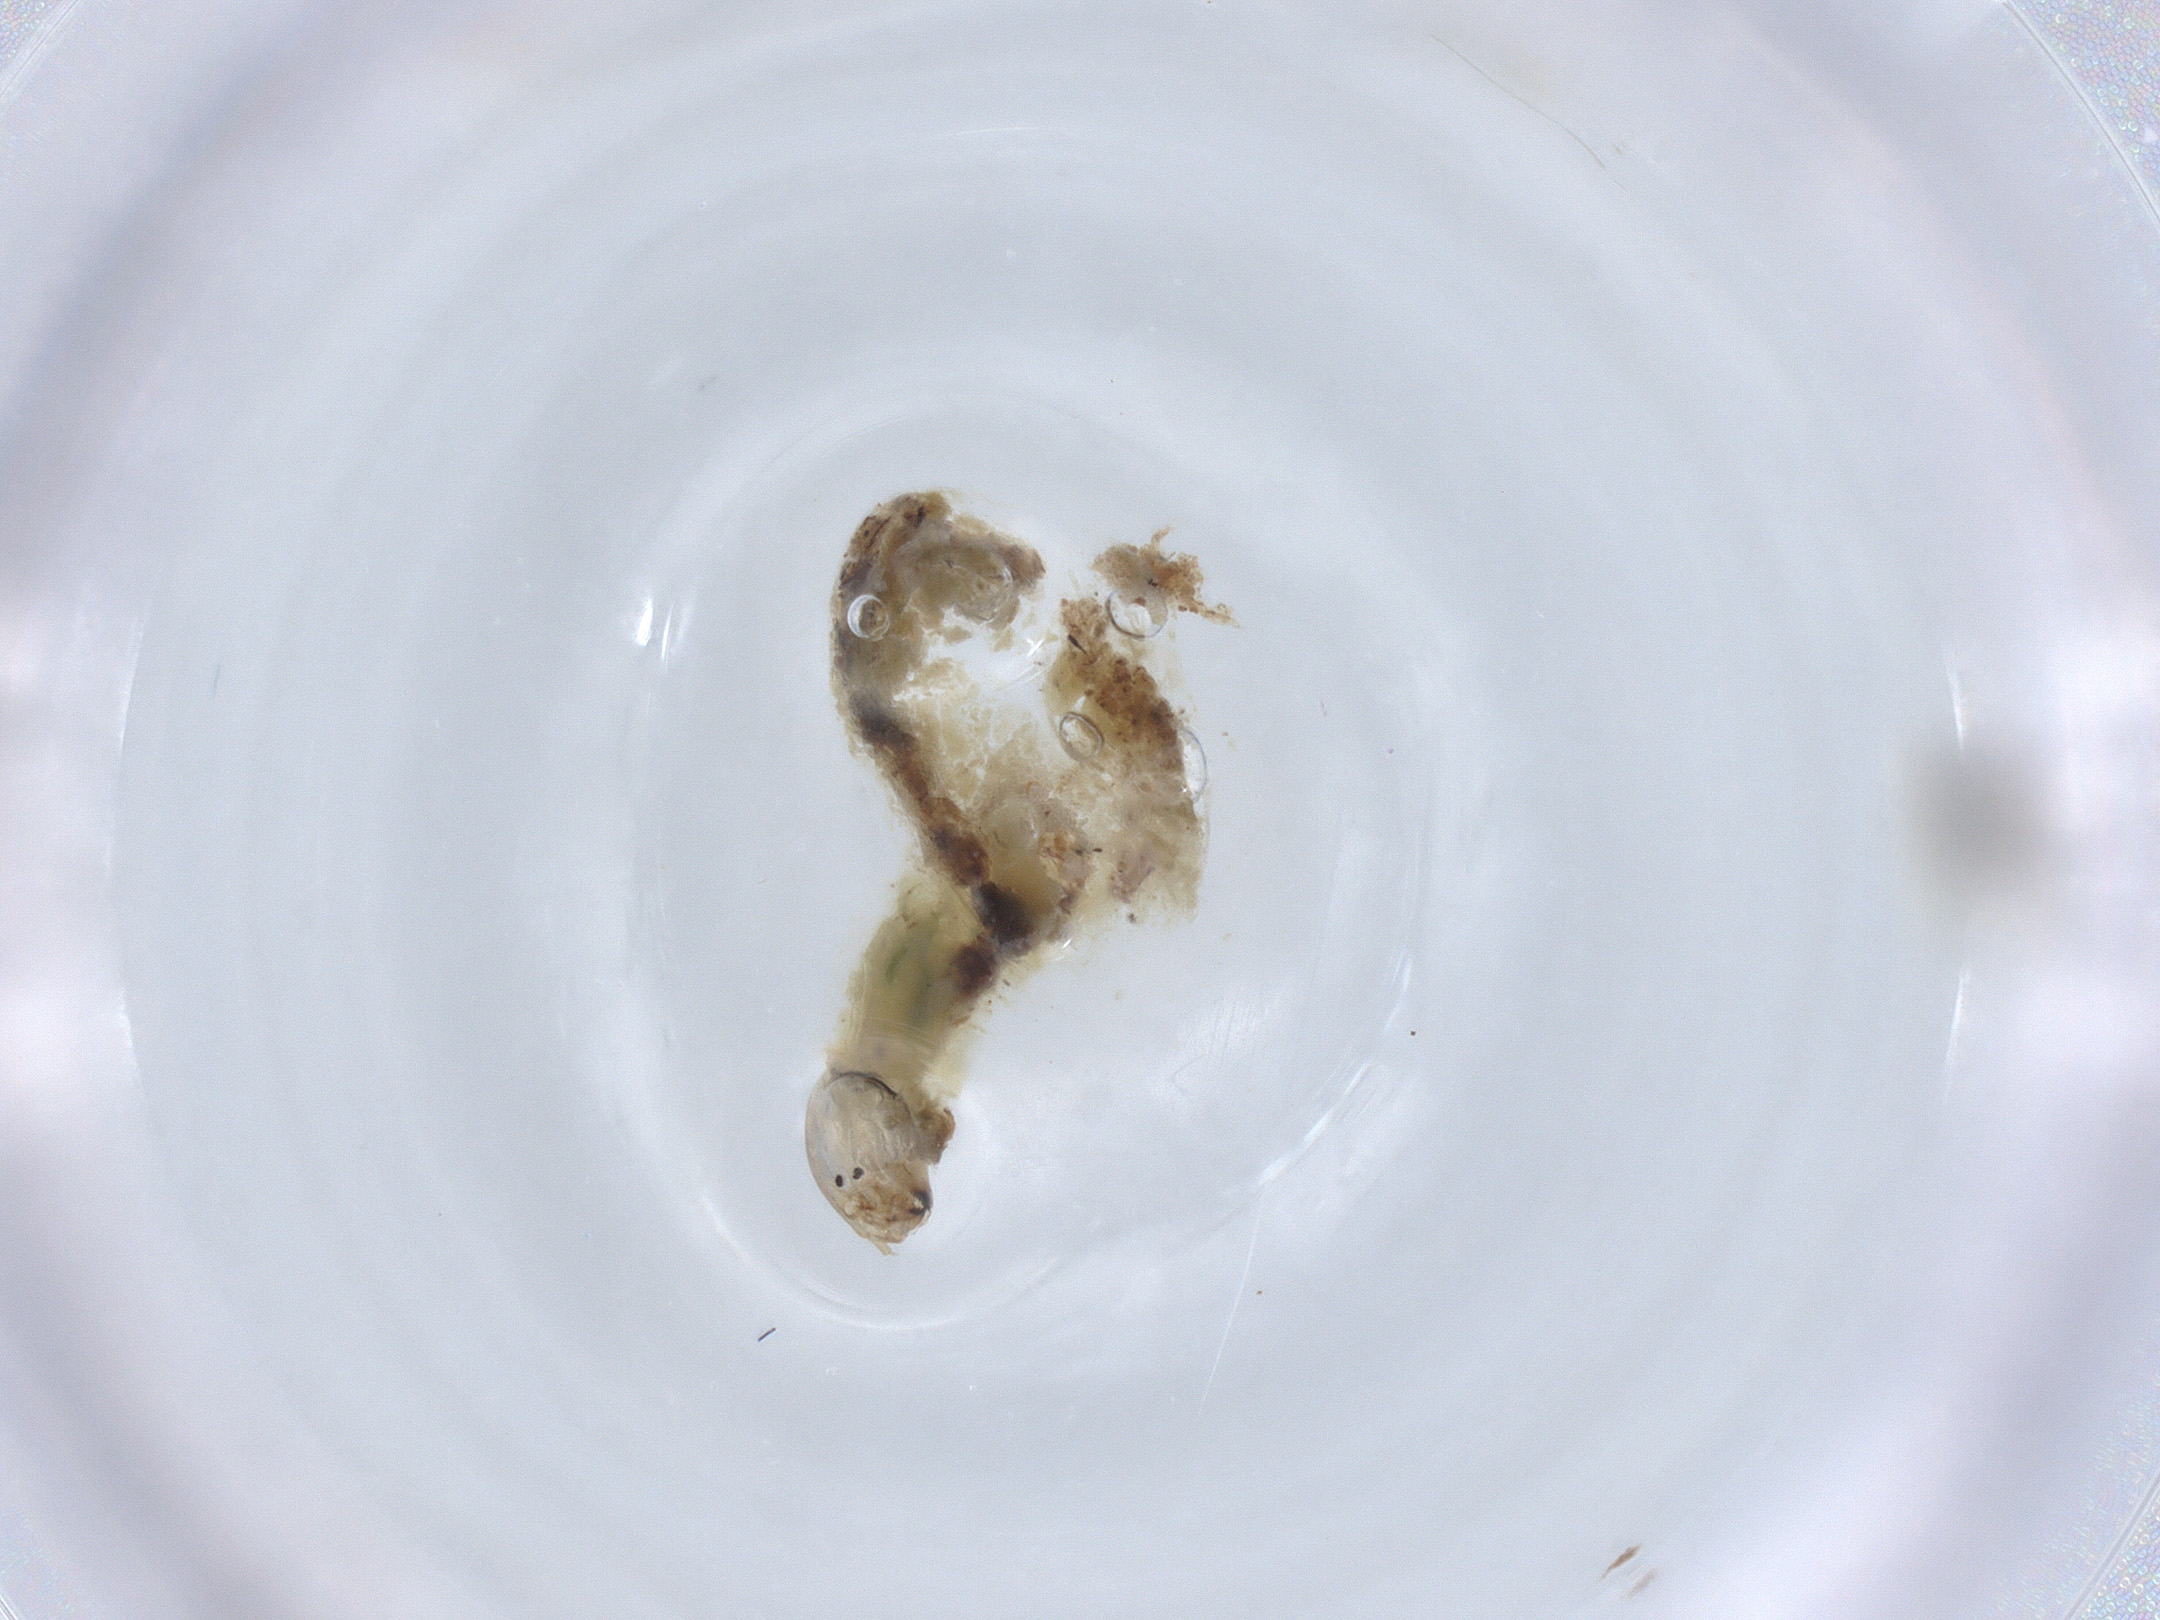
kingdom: Animalia
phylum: Arthropoda
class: Insecta
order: Diptera
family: Chironomidae
